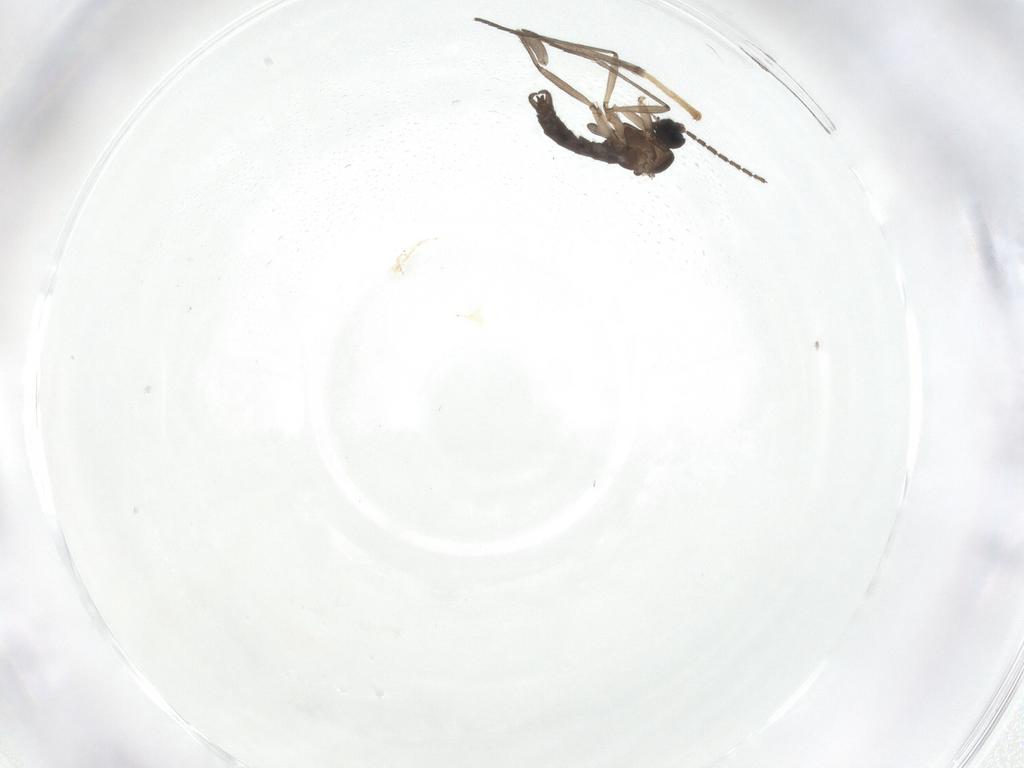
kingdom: Animalia
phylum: Arthropoda
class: Insecta
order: Diptera
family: Sciaridae
